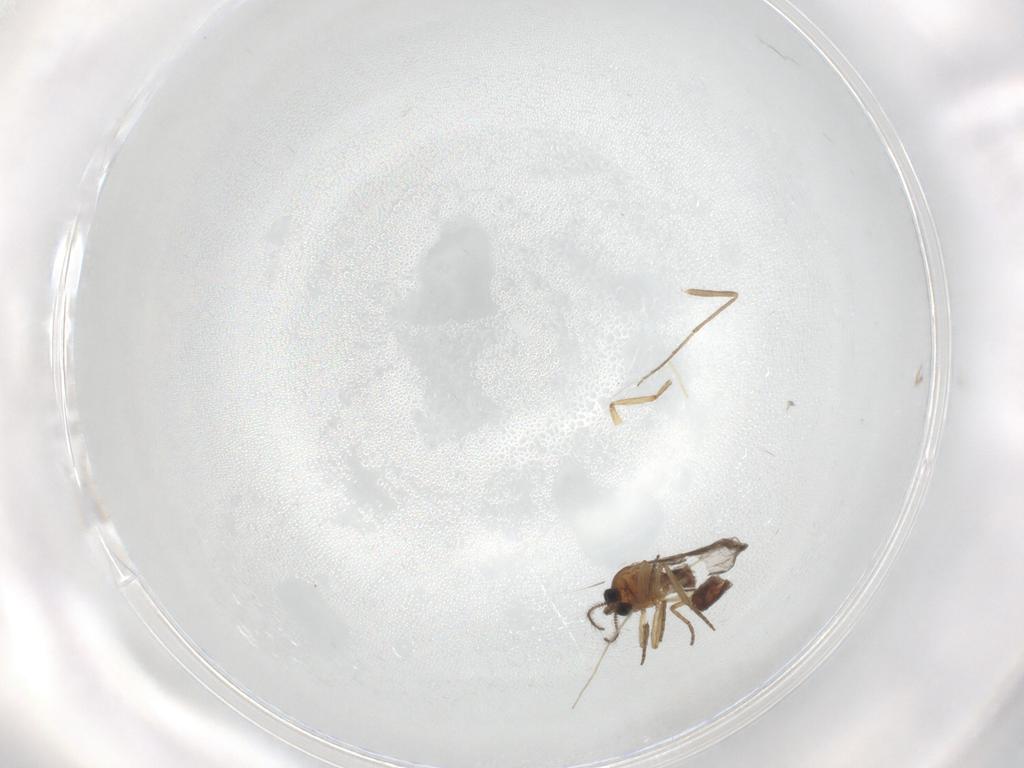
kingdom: Animalia
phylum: Arthropoda
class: Insecta
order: Diptera
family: Ceratopogonidae
